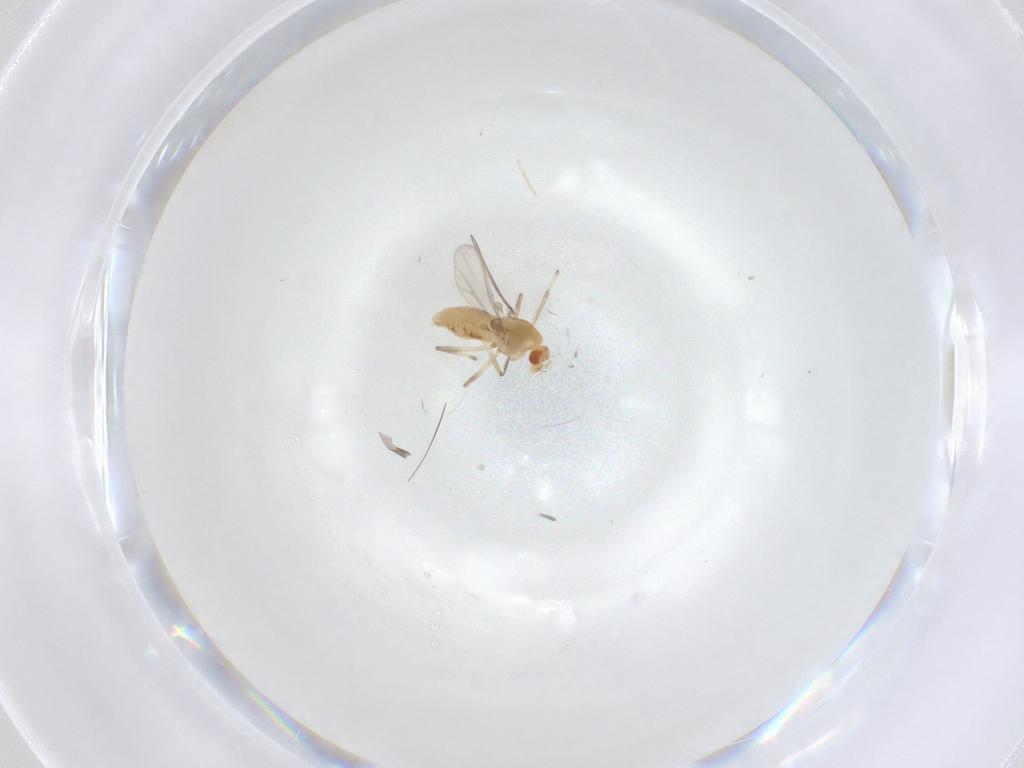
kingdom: Animalia
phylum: Arthropoda
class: Insecta
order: Diptera
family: Chironomidae
